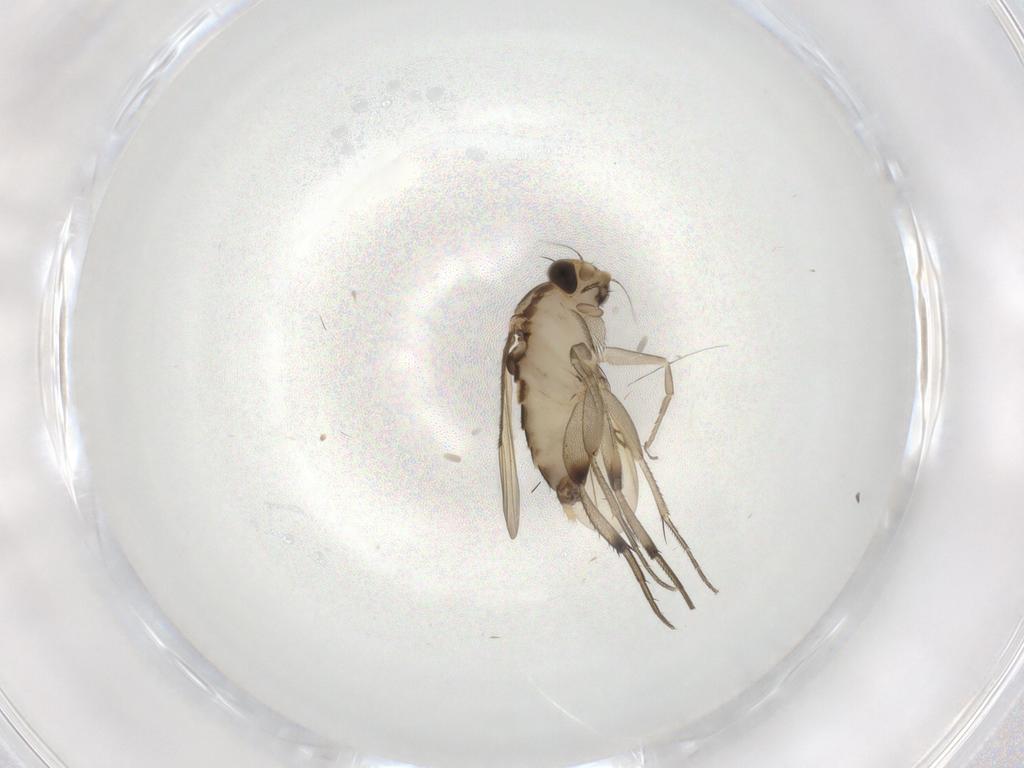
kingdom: Animalia
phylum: Arthropoda
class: Insecta
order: Diptera
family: Phoridae
